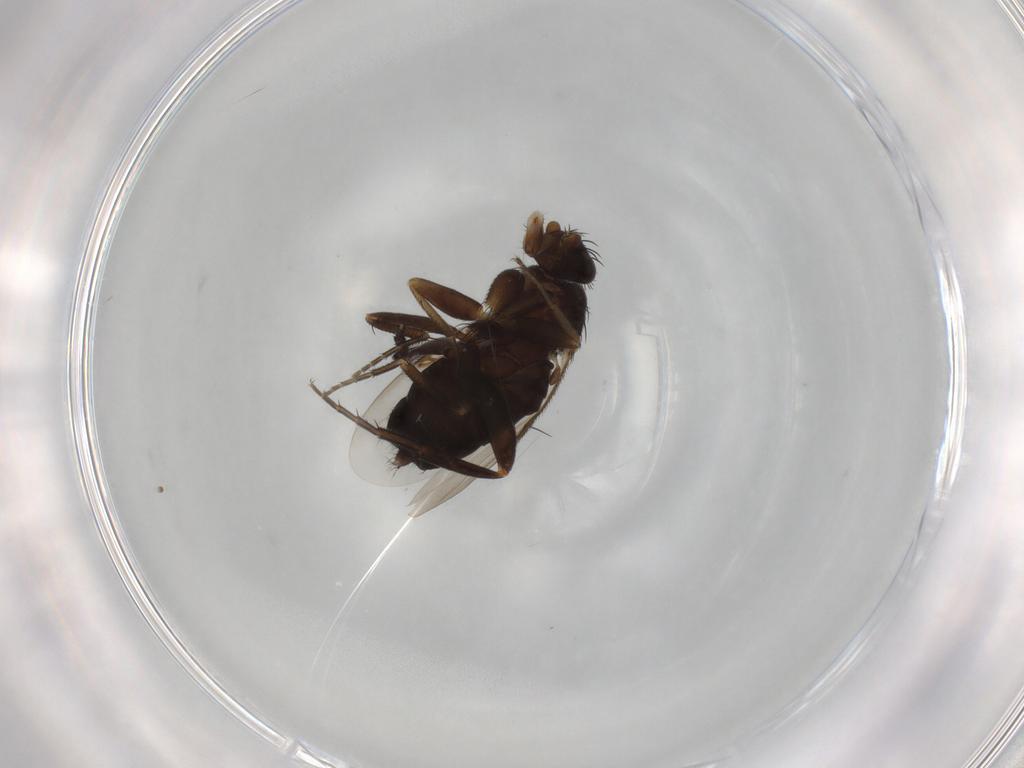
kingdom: Animalia
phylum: Arthropoda
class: Insecta
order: Diptera
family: Phoridae
